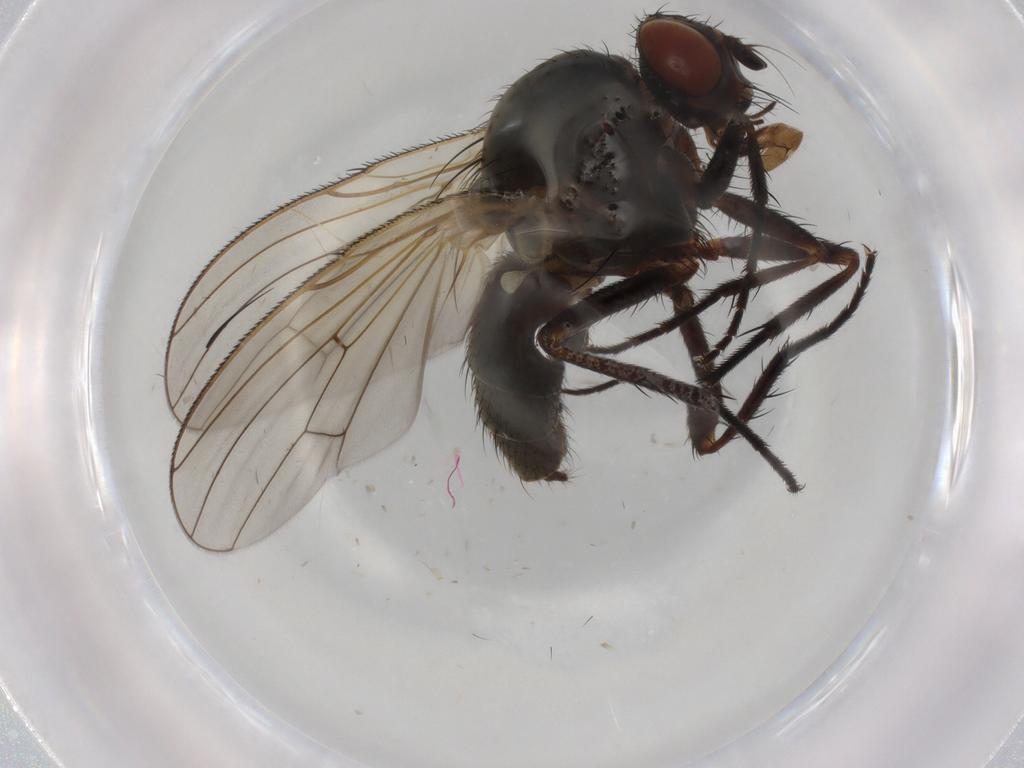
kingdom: Animalia
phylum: Arthropoda
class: Insecta
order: Diptera
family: Anthomyiidae
